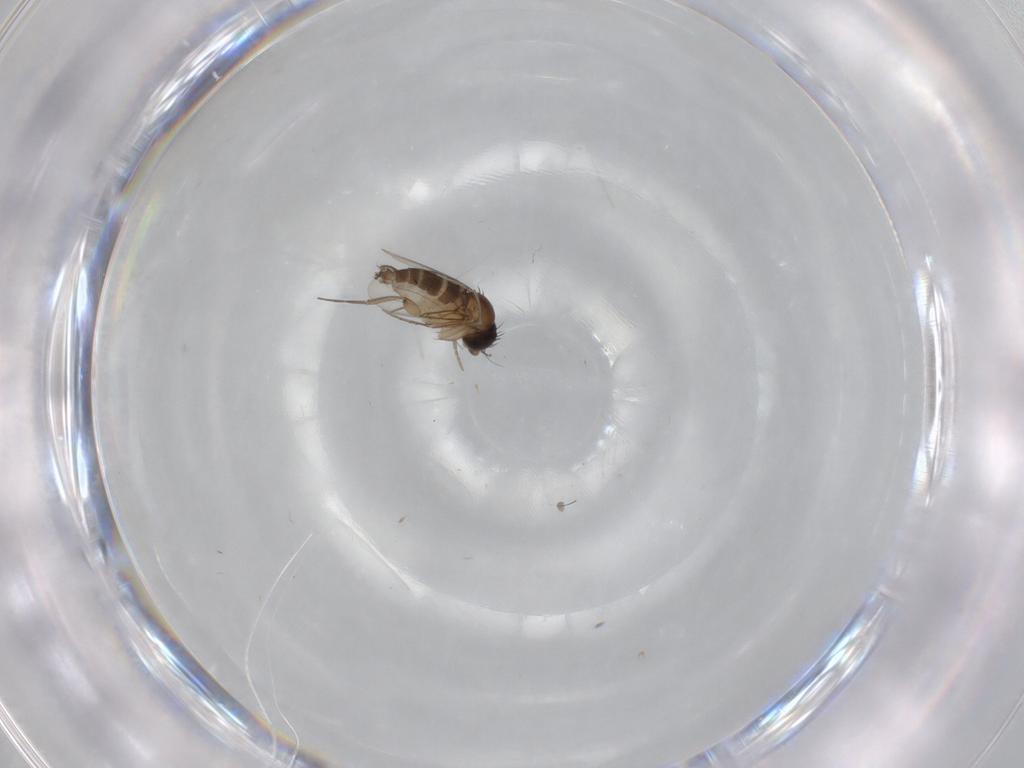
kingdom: Animalia
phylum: Arthropoda
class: Insecta
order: Diptera
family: Phoridae
